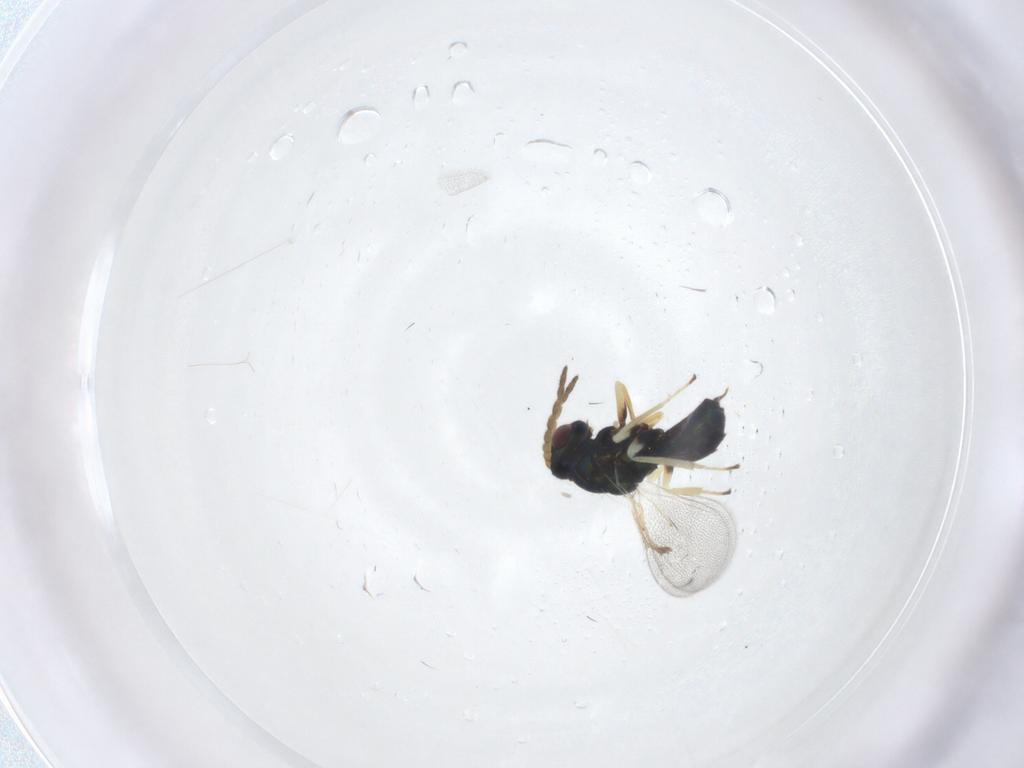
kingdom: Animalia
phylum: Arthropoda
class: Insecta
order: Hymenoptera
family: Eulophidae
